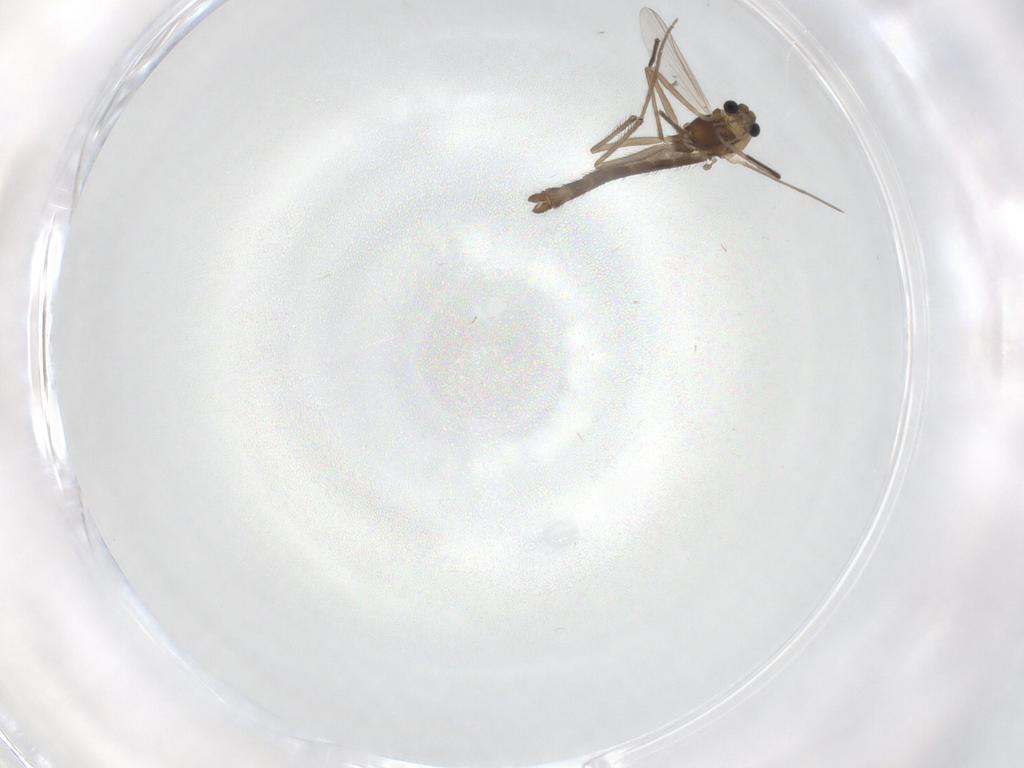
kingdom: Animalia
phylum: Arthropoda
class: Insecta
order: Diptera
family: Chironomidae
